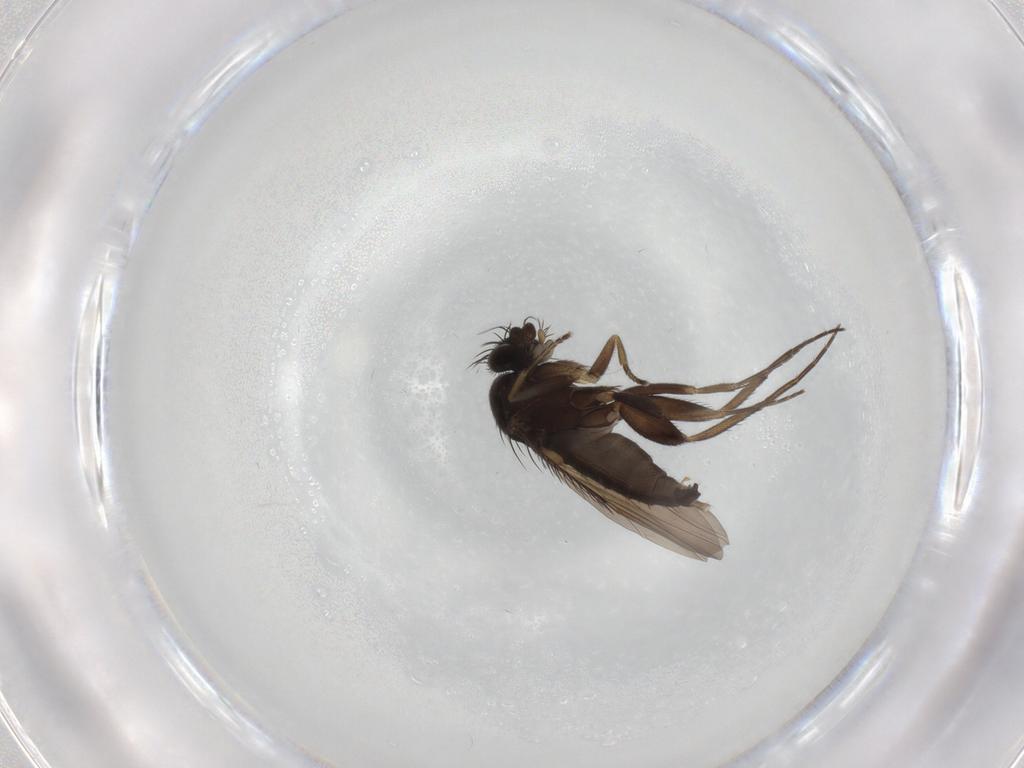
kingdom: Animalia
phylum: Arthropoda
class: Insecta
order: Diptera
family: Phoridae
